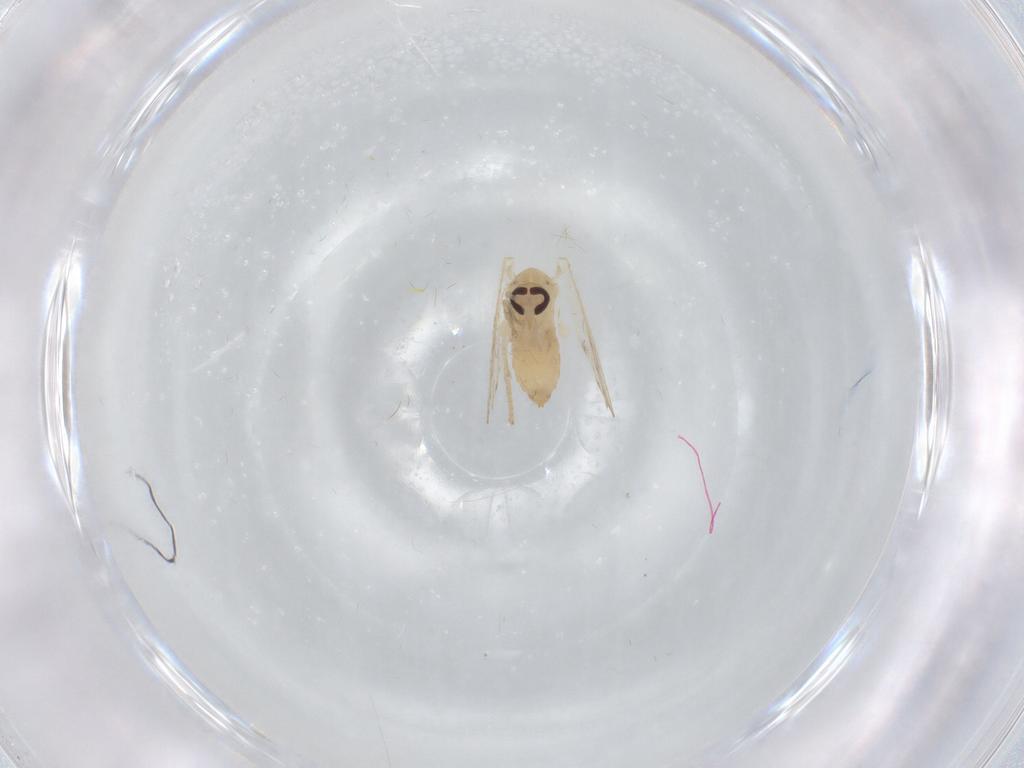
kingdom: Animalia
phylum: Arthropoda
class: Insecta
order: Diptera
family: Psychodidae
